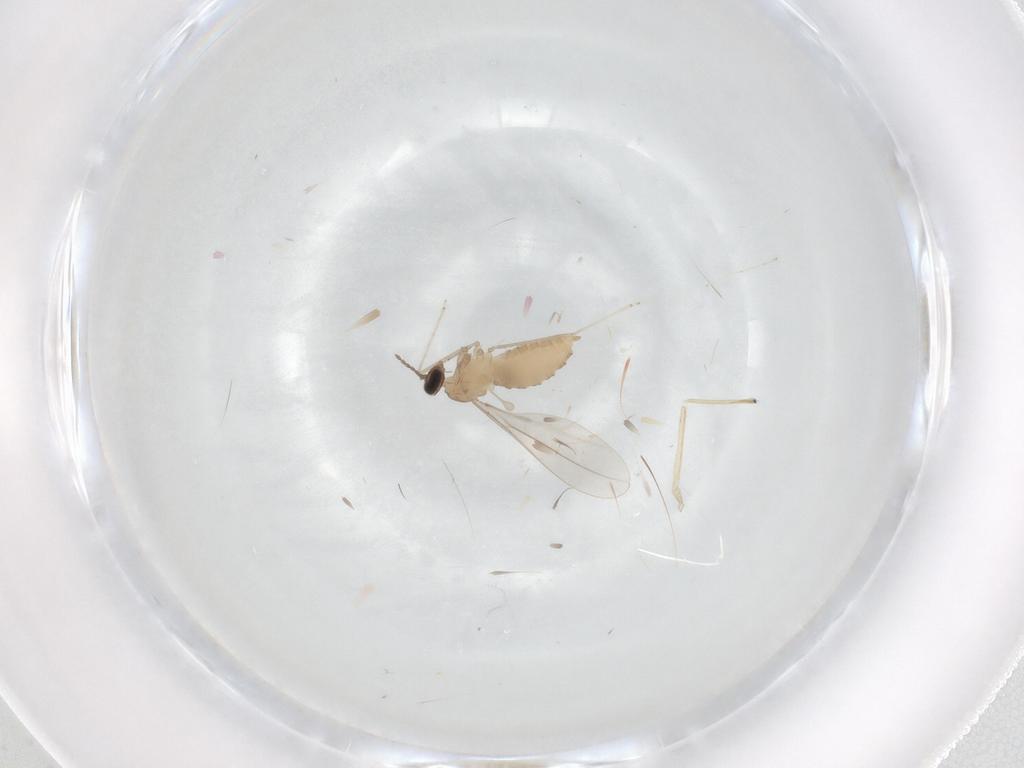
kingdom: Animalia
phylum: Arthropoda
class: Insecta
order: Diptera
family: Cecidomyiidae
